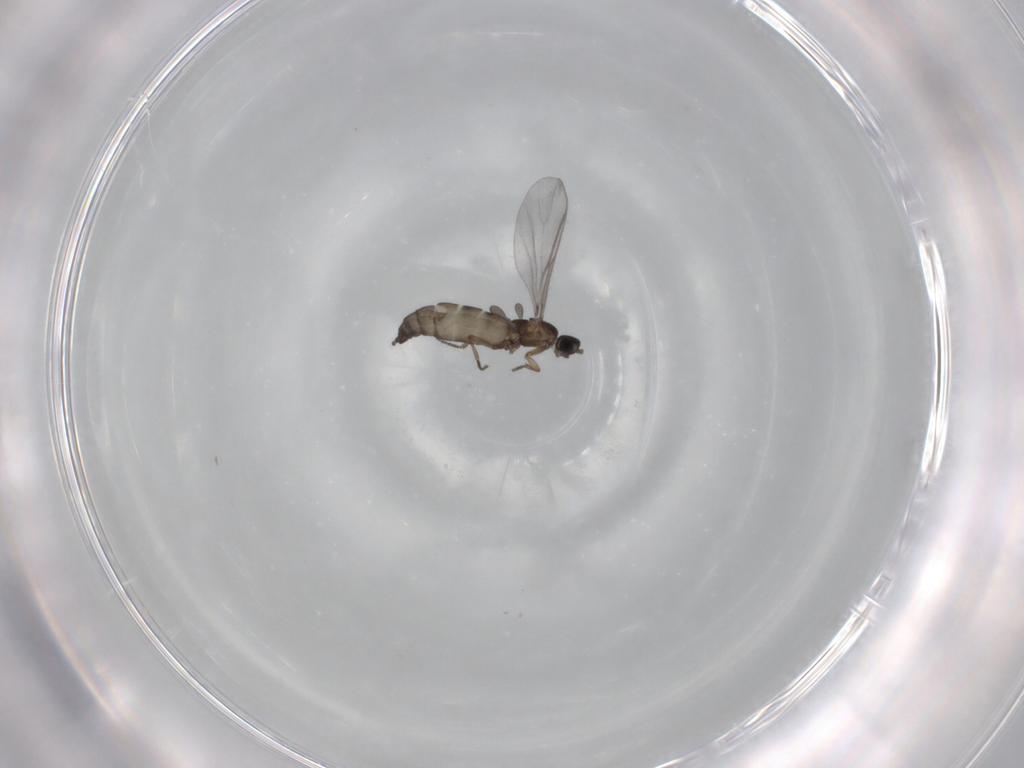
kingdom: Animalia
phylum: Arthropoda
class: Insecta
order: Diptera
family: Sciaridae
